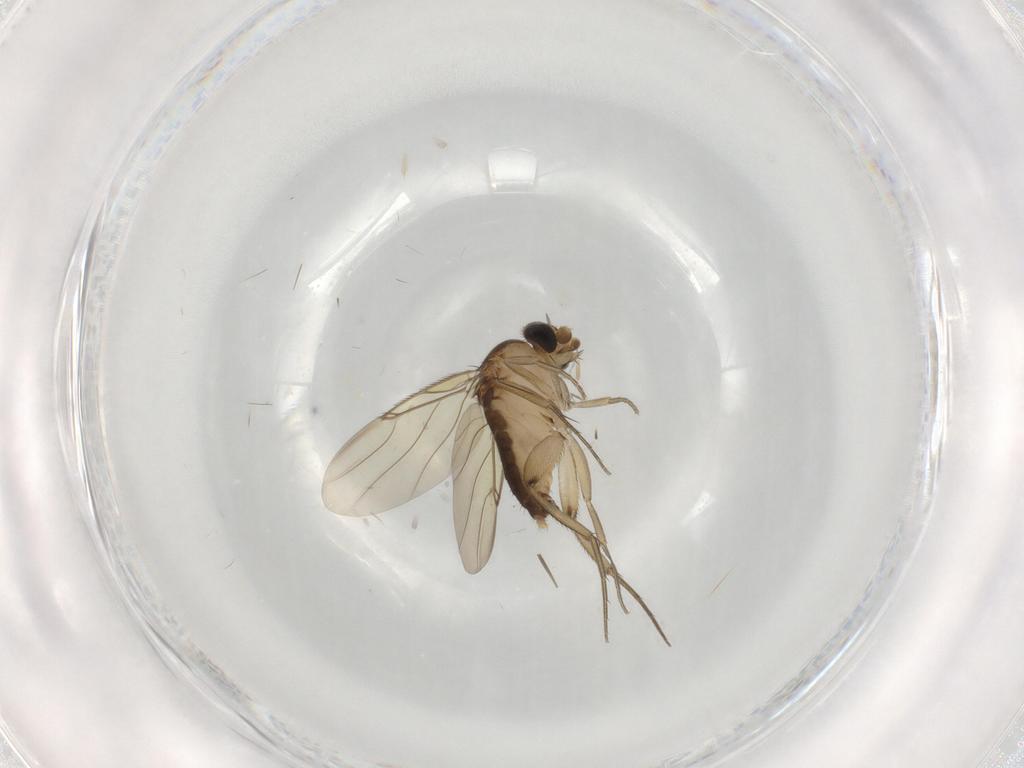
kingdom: Animalia
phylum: Arthropoda
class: Insecta
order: Diptera
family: Phoridae
